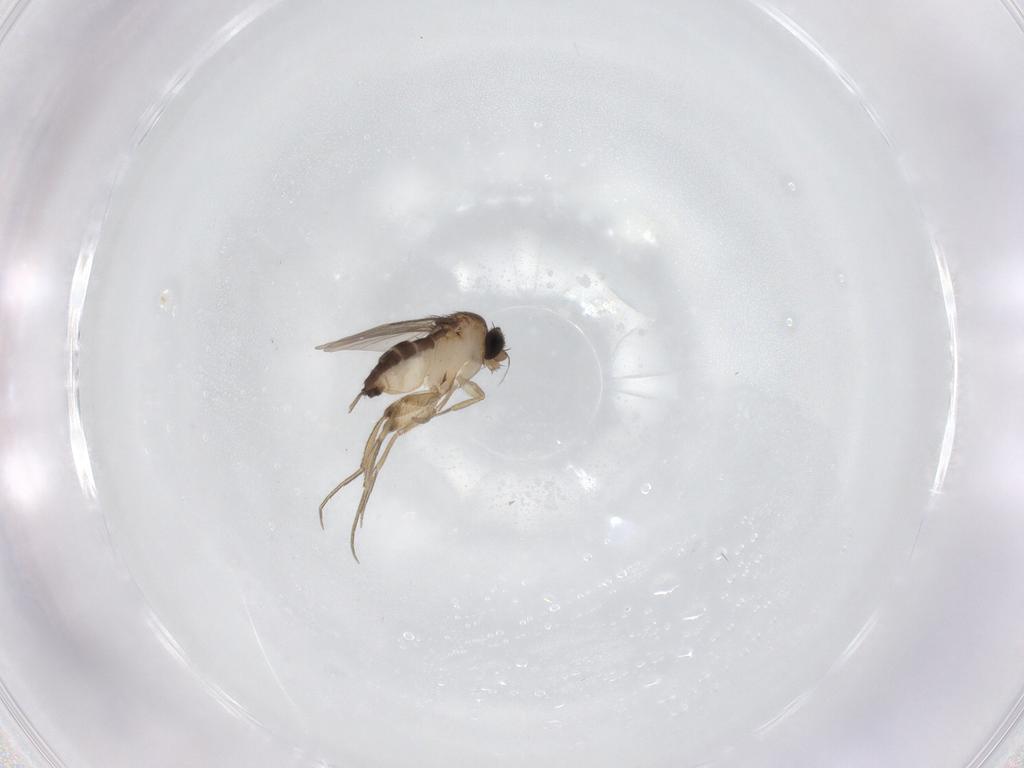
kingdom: Animalia
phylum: Arthropoda
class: Insecta
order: Diptera
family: Phoridae
